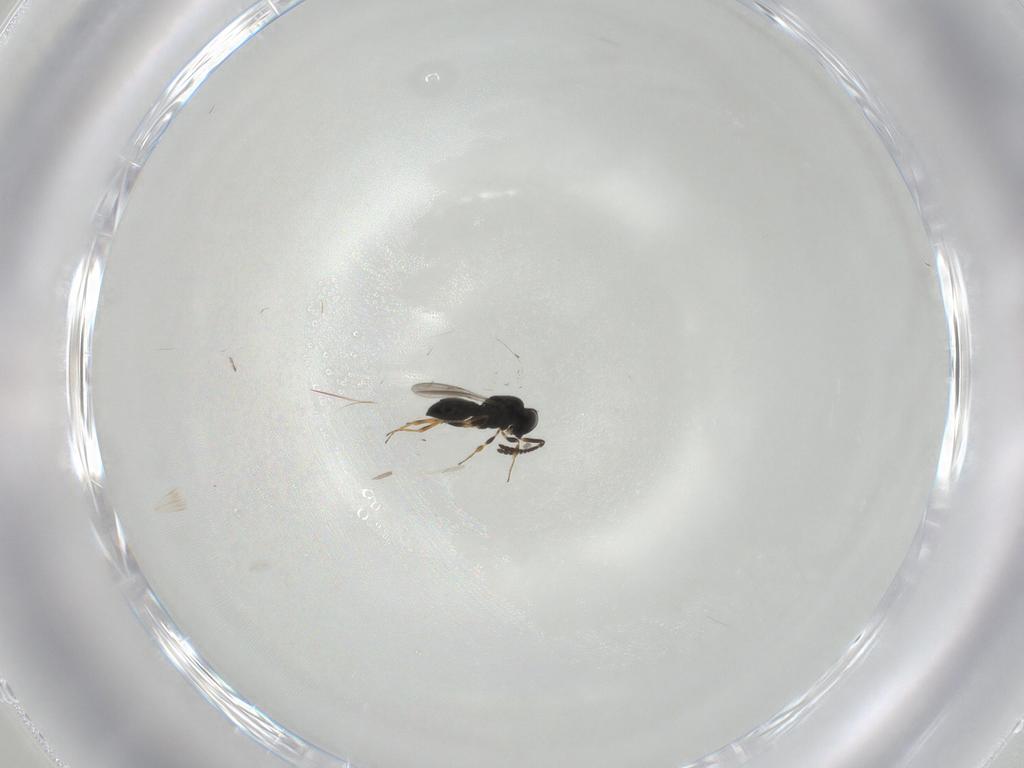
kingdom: Animalia
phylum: Arthropoda
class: Insecta
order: Hymenoptera
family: Scelionidae
